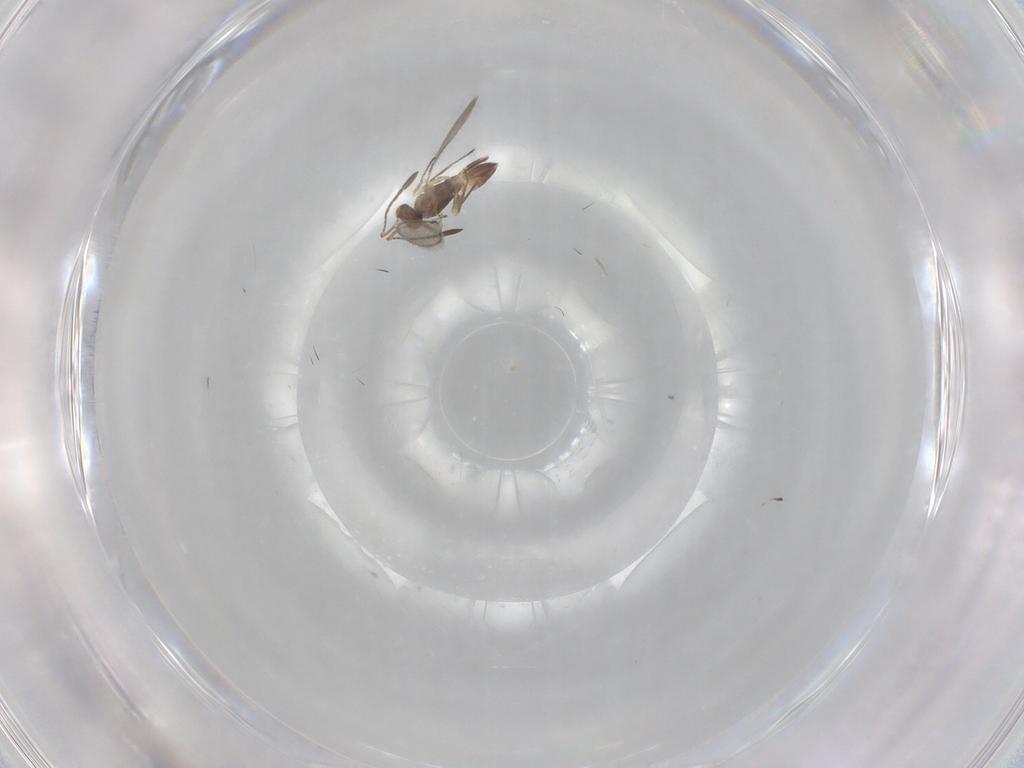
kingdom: Animalia
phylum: Arthropoda
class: Insecta
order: Hymenoptera
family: Mymaridae
